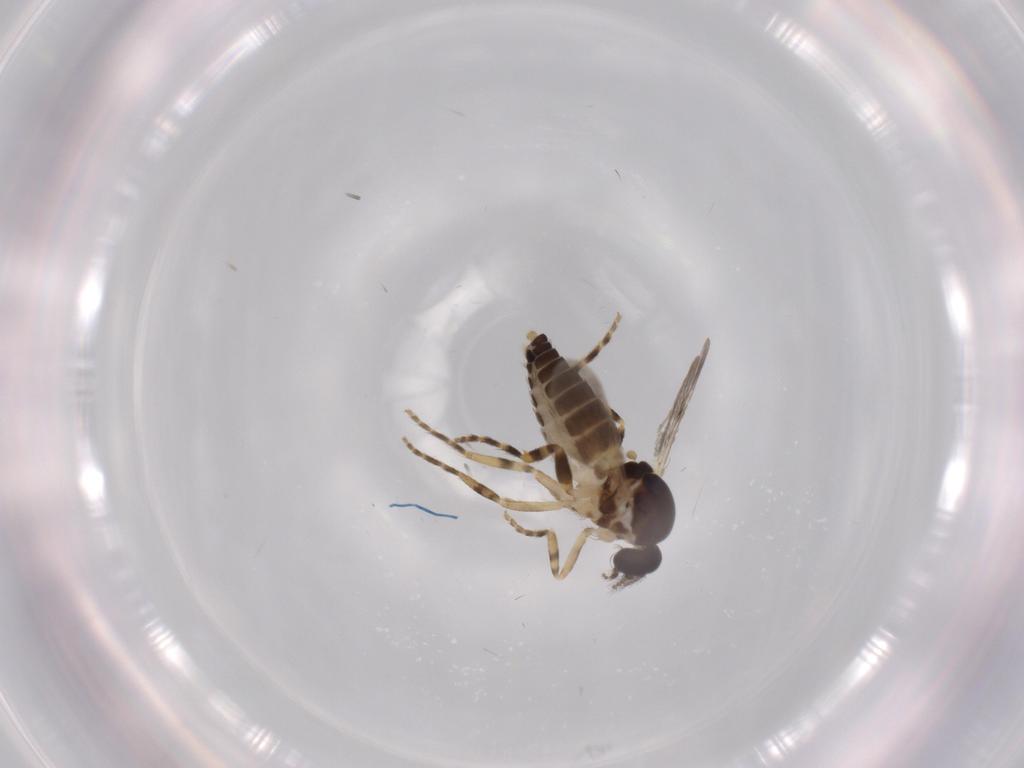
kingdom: Animalia
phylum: Arthropoda
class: Insecta
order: Diptera
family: Ceratopogonidae
